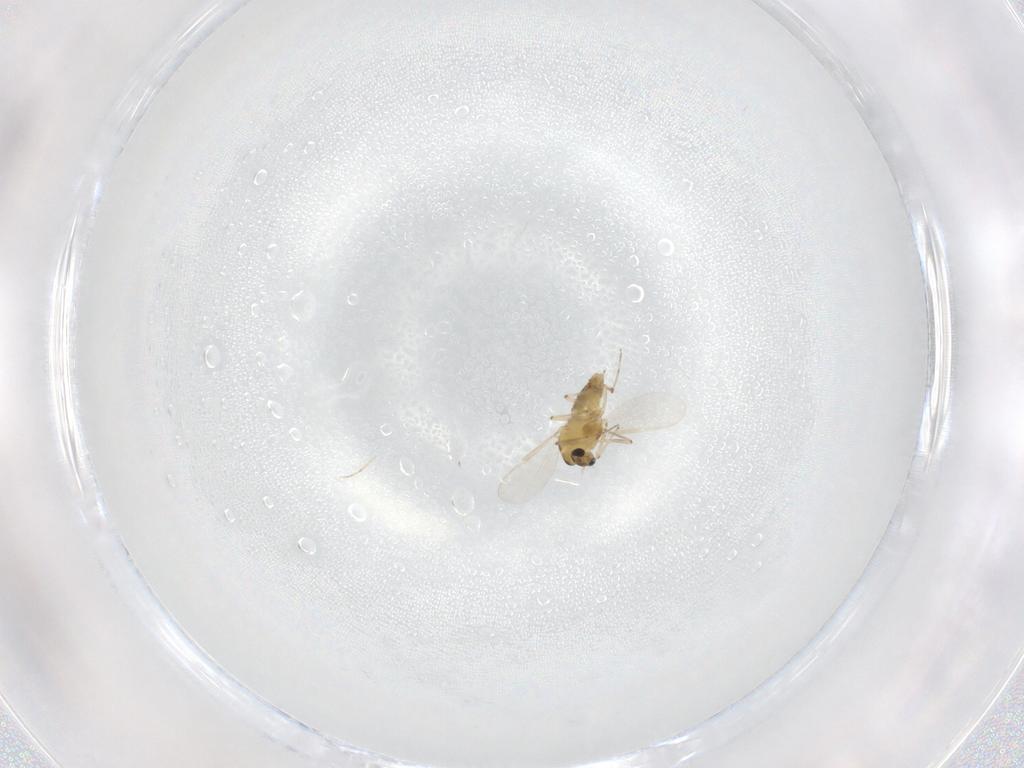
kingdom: Animalia
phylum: Arthropoda
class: Insecta
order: Diptera
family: Chironomidae
